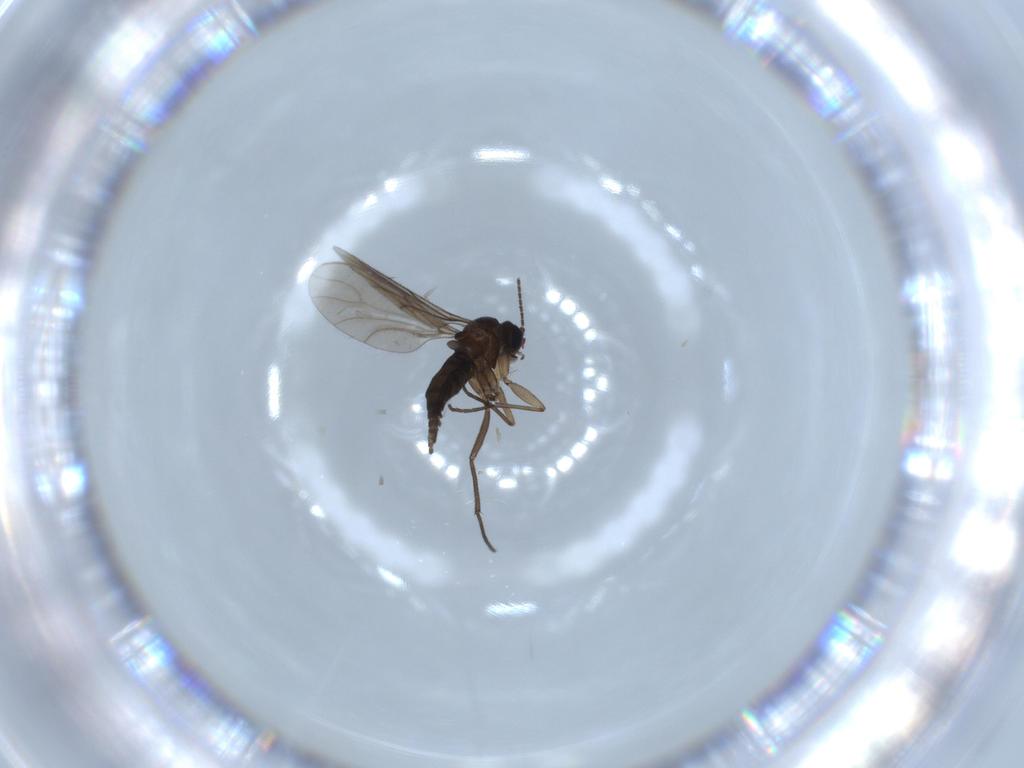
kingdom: Animalia
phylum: Arthropoda
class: Insecta
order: Diptera
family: Sciaridae
